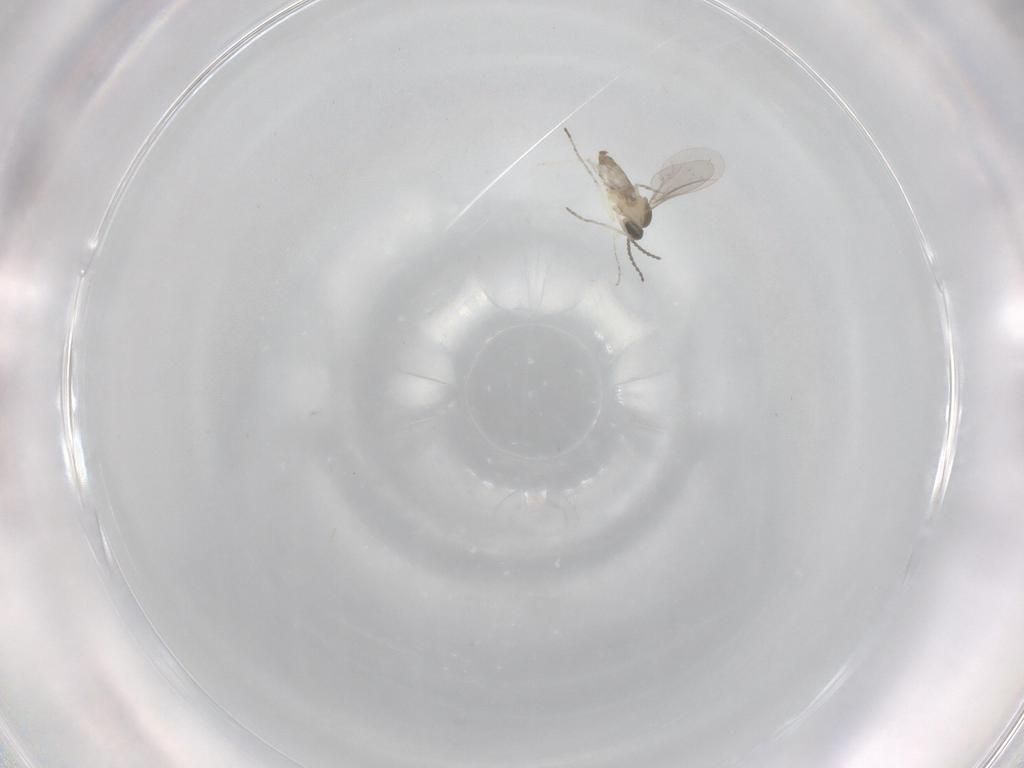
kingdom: Animalia
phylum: Arthropoda
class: Insecta
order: Diptera
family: Cecidomyiidae
